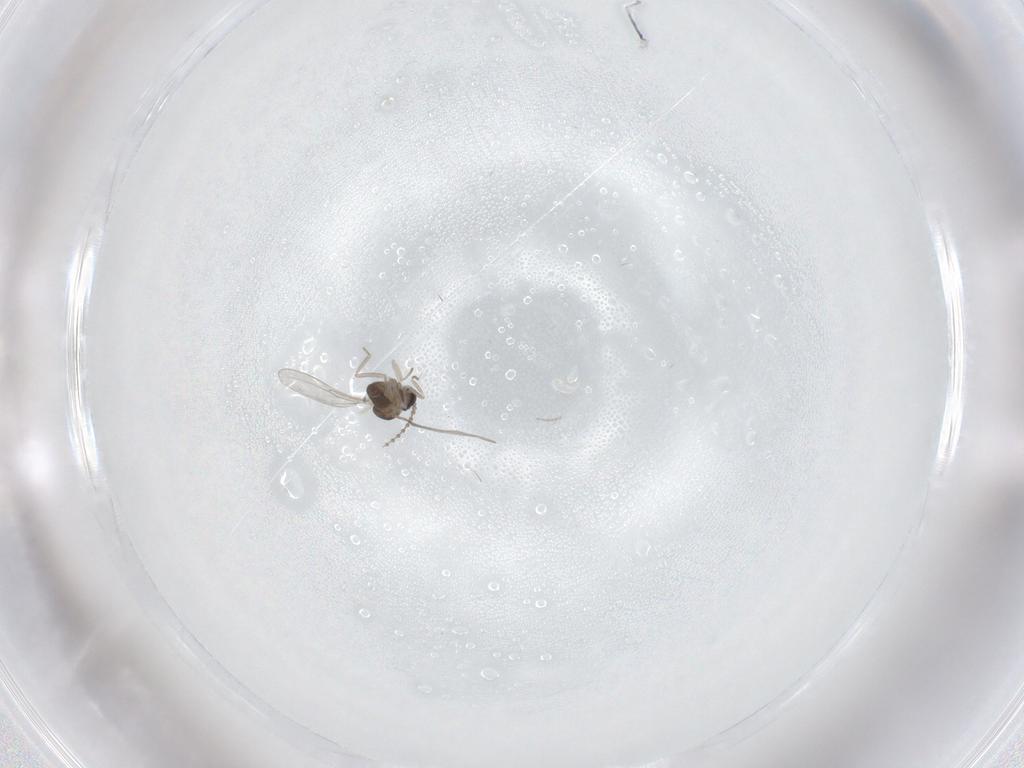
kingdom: Animalia
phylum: Arthropoda
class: Insecta
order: Diptera
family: Cecidomyiidae
